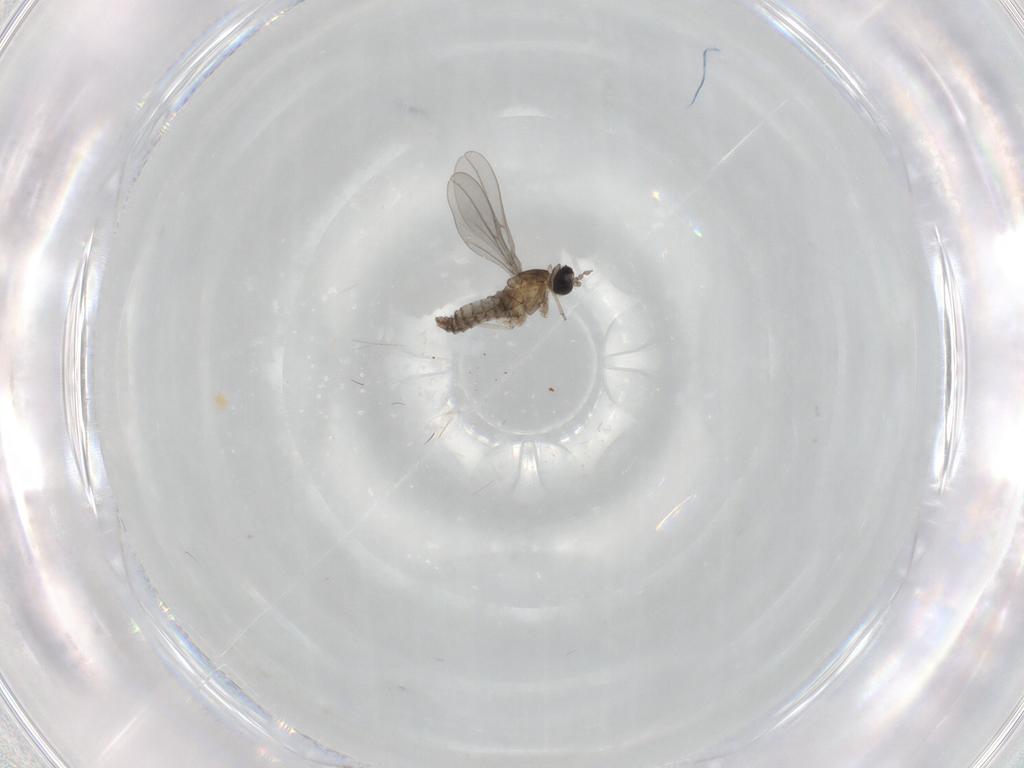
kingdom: Animalia
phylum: Arthropoda
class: Insecta
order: Diptera
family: Cecidomyiidae
